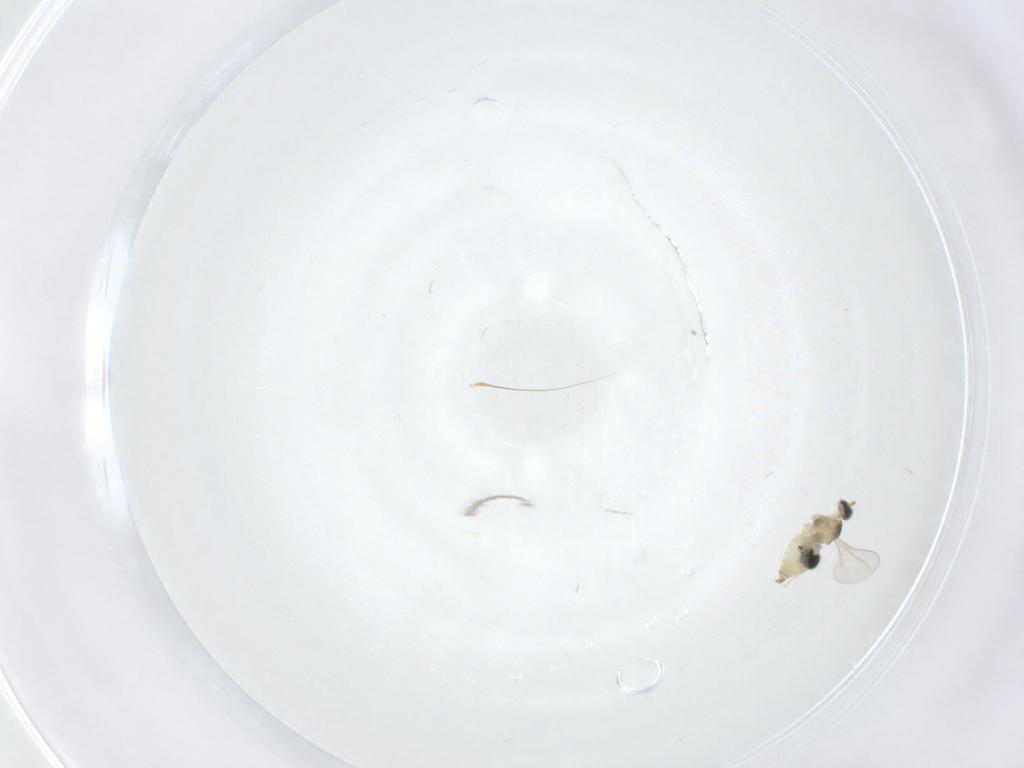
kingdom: Animalia
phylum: Arthropoda
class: Insecta
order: Diptera
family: Cecidomyiidae
